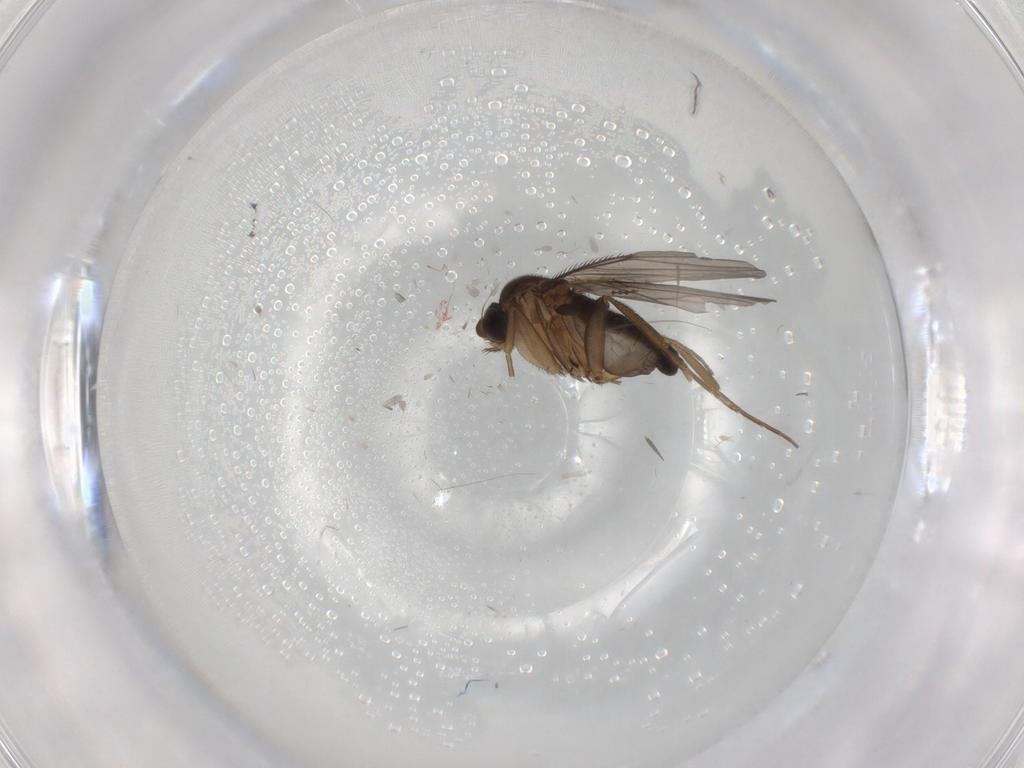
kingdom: Animalia
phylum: Arthropoda
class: Insecta
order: Diptera
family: Phoridae
